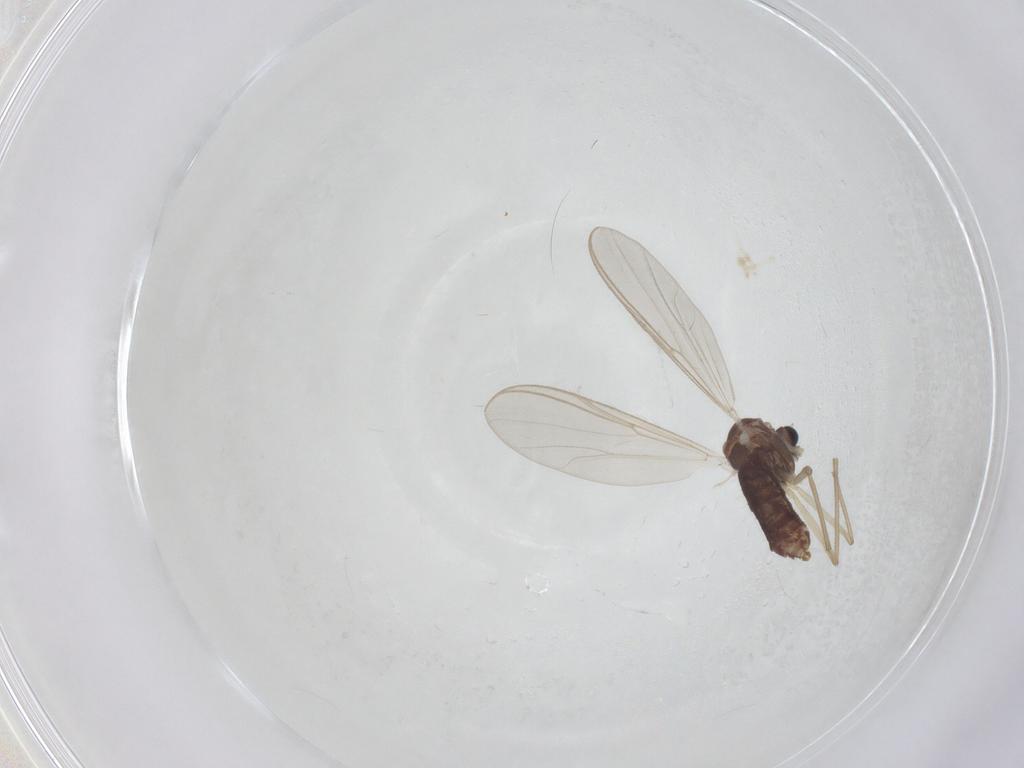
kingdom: Animalia
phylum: Arthropoda
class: Insecta
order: Diptera
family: Chironomidae
